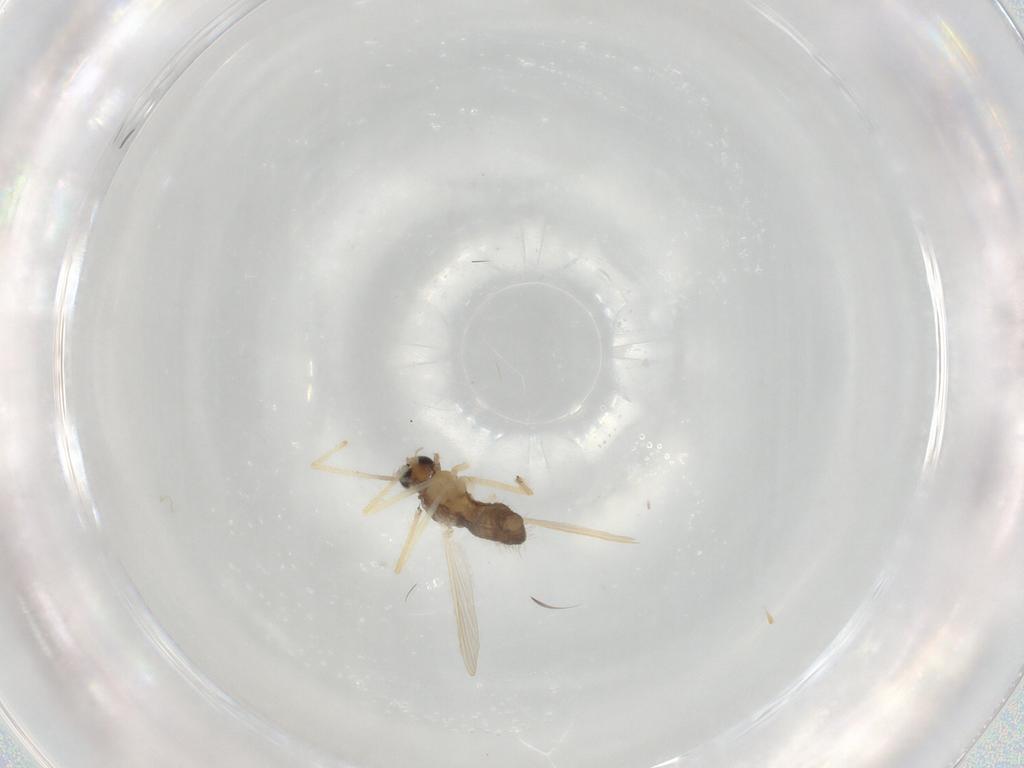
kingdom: Animalia
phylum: Arthropoda
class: Insecta
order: Diptera
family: Chironomidae
